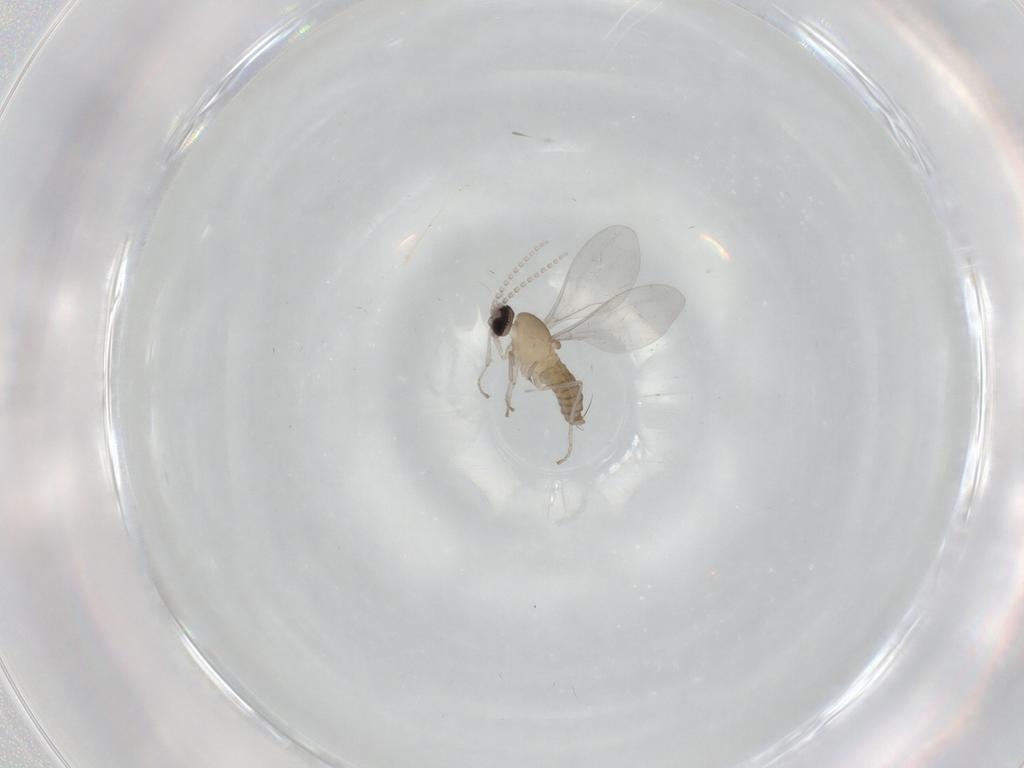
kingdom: Animalia
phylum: Arthropoda
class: Insecta
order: Diptera
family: Cecidomyiidae
